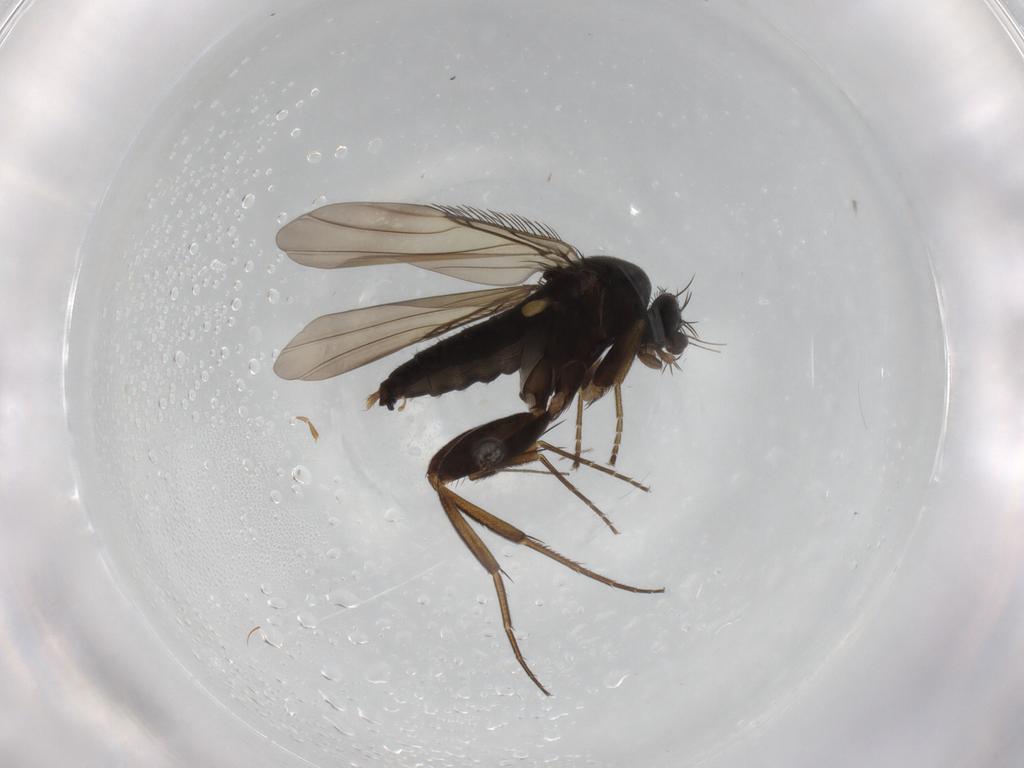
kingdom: Animalia
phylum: Arthropoda
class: Insecta
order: Diptera
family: Phoridae
